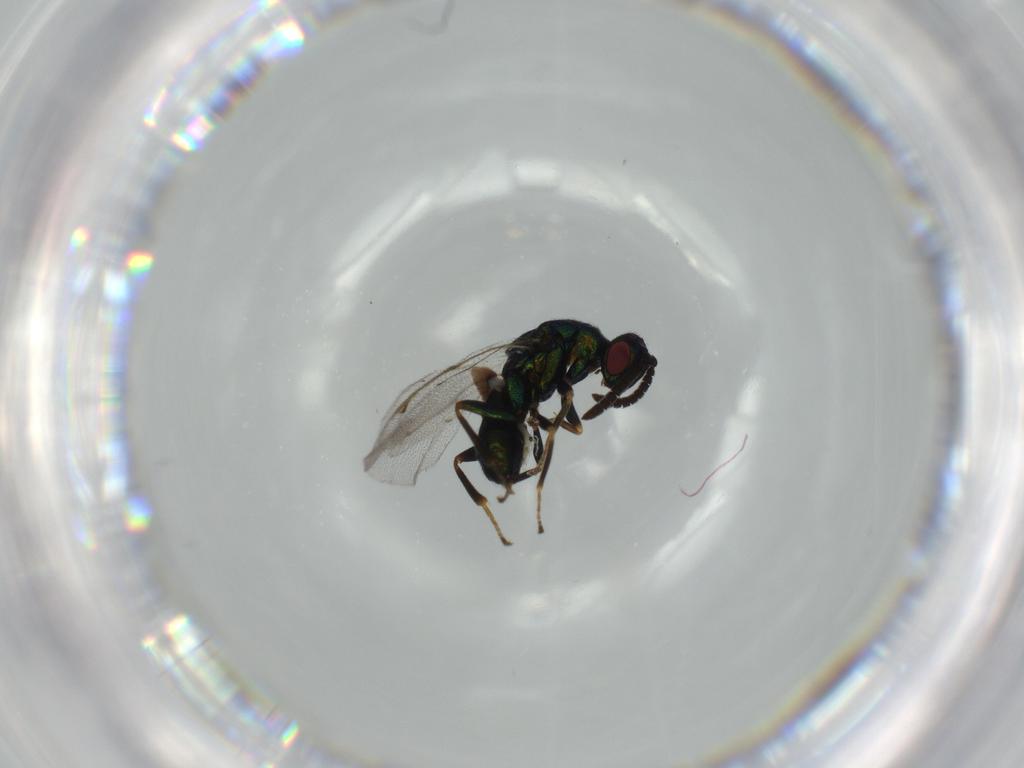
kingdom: Animalia
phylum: Arthropoda
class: Insecta
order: Hymenoptera
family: Torymidae
